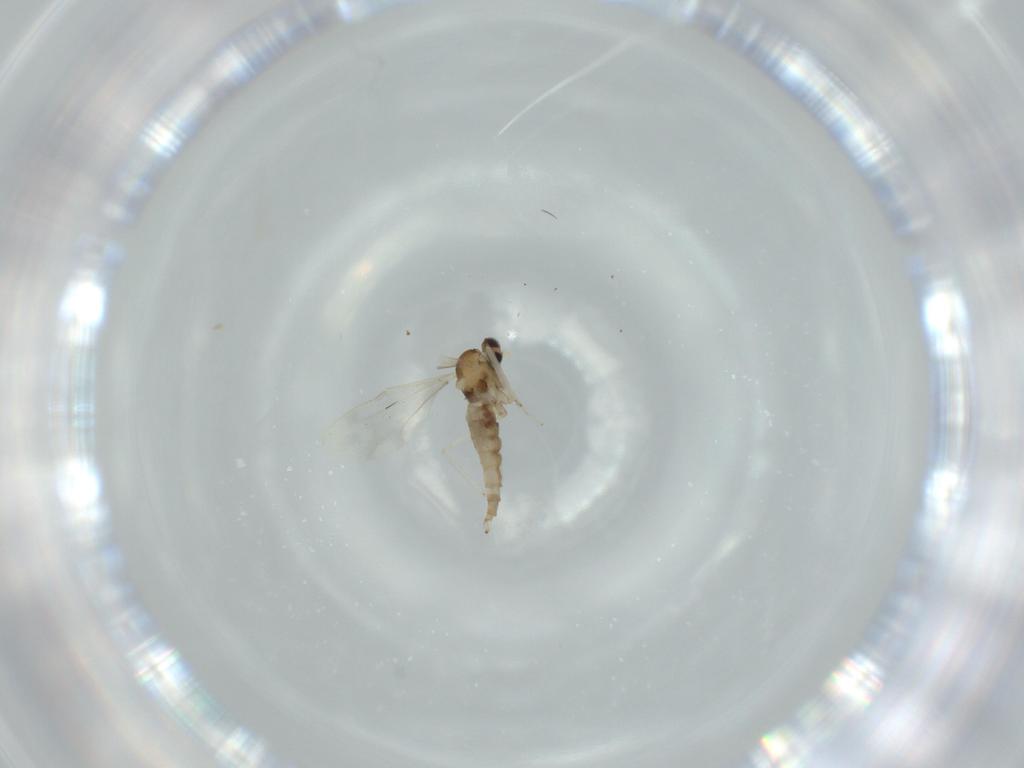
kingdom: Animalia
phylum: Arthropoda
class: Insecta
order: Diptera
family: Cecidomyiidae
